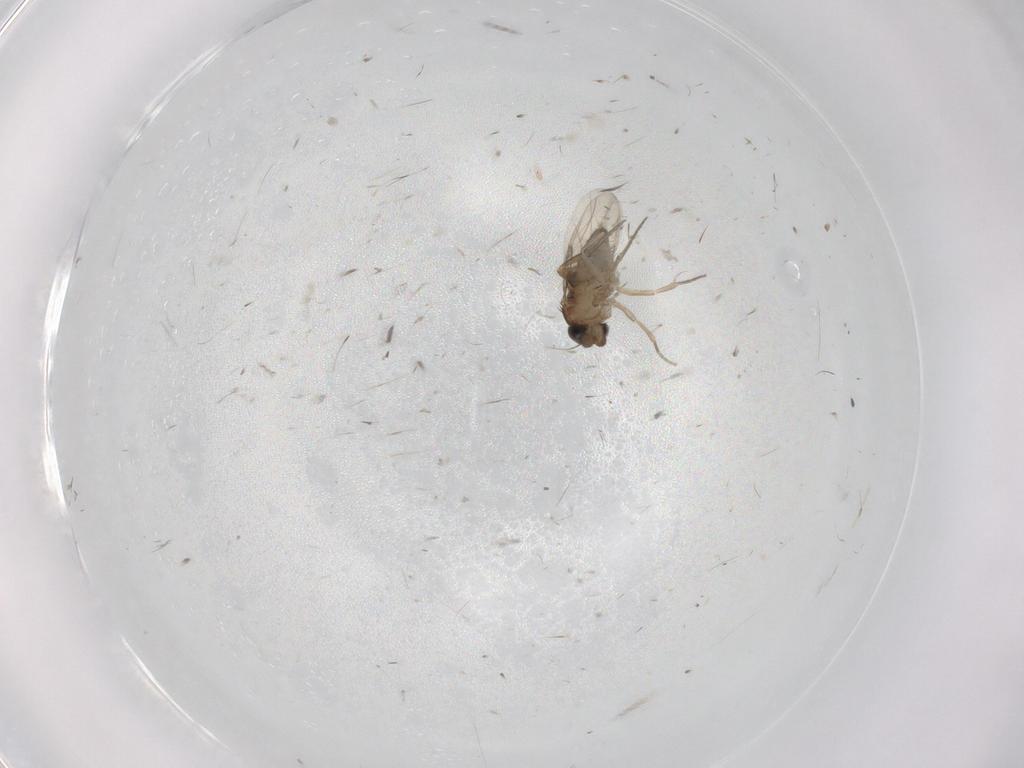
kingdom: Animalia
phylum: Arthropoda
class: Insecta
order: Diptera
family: Phoridae
